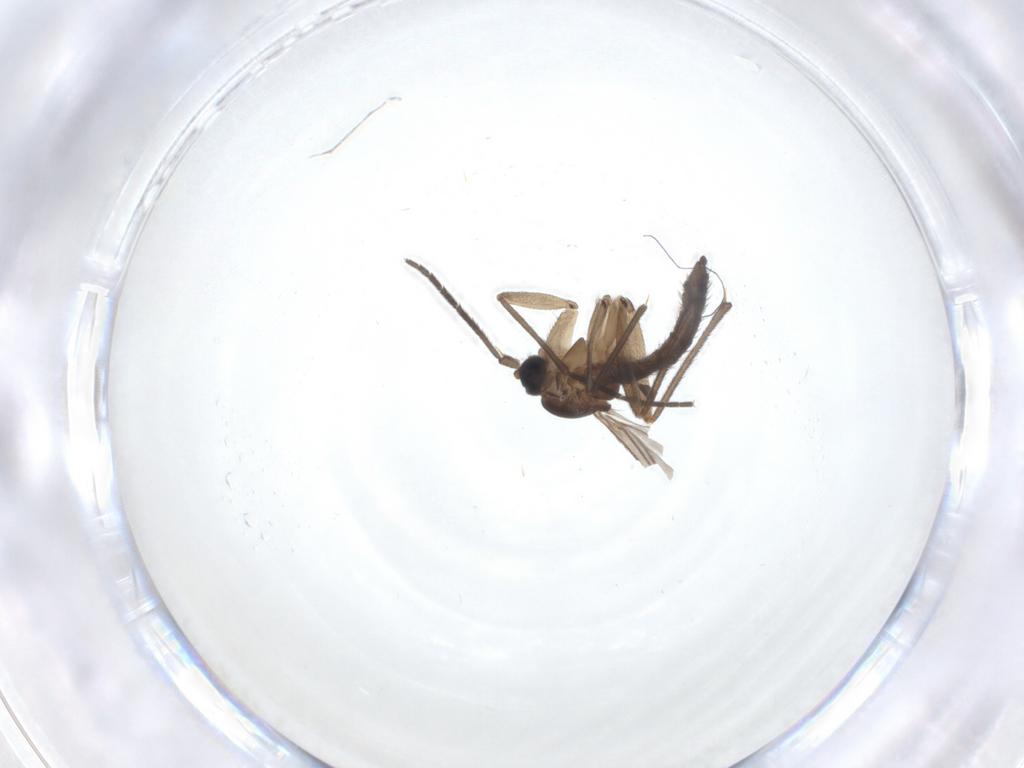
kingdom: Animalia
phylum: Arthropoda
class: Insecta
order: Diptera
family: Sciaridae
